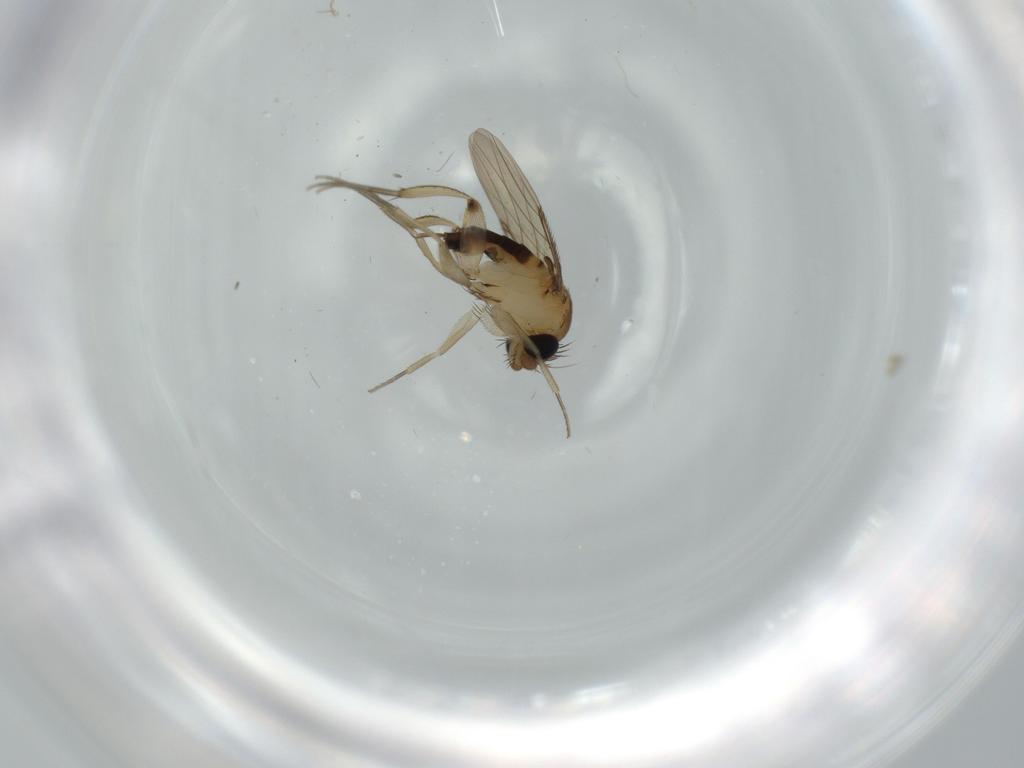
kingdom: Animalia
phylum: Arthropoda
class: Insecta
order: Diptera
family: Phoridae
